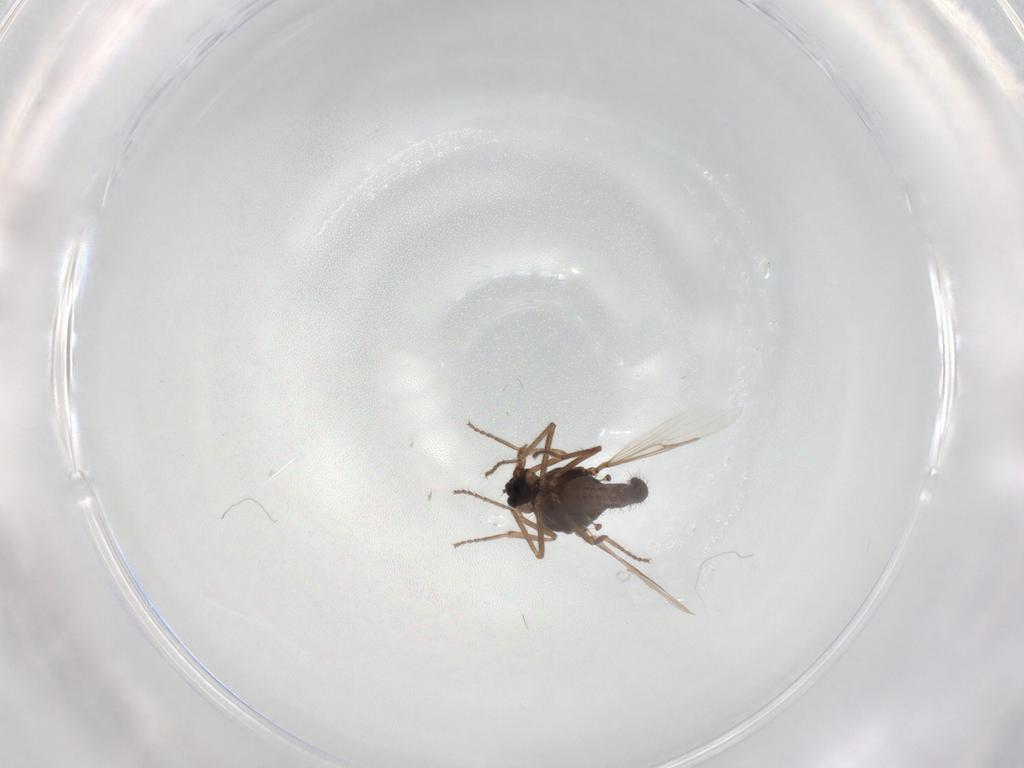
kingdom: Animalia
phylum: Arthropoda
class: Insecta
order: Diptera
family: Ceratopogonidae
